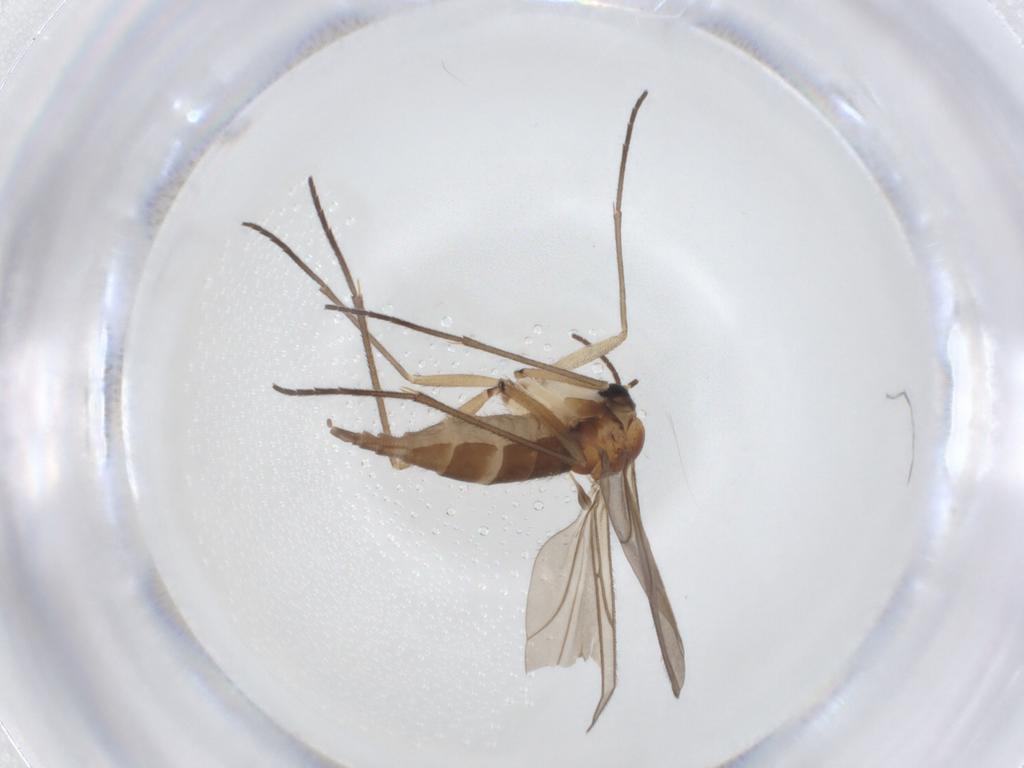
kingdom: Animalia
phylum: Arthropoda
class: Insecta
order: Diptera
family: Sciaridae
